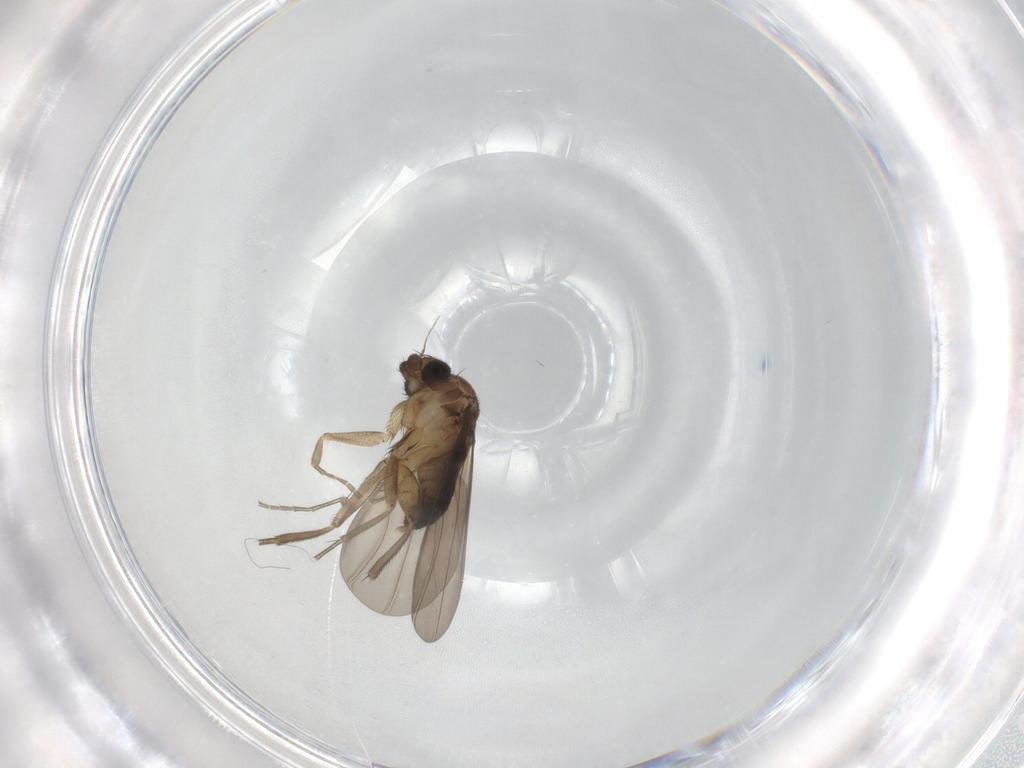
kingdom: Animalia
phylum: Arthropoda
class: Insecta
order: Diptera
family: Phoridae
